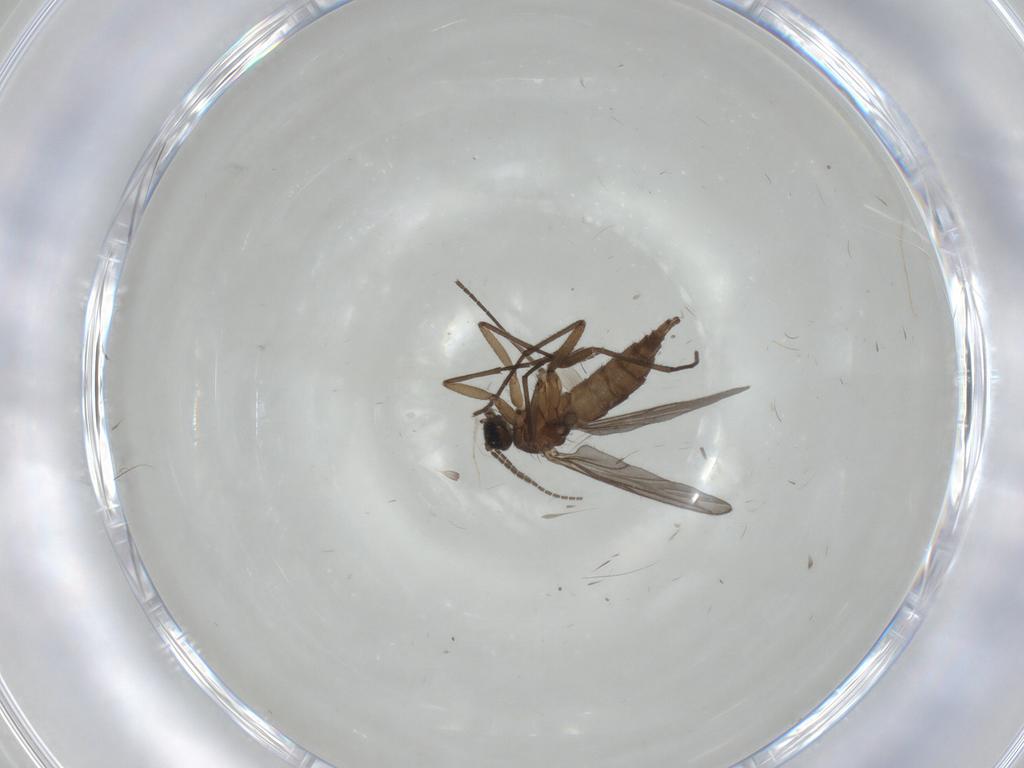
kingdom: Animalia
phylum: Arthropoda
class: Insecta
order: Diptera
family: Sciaridae
